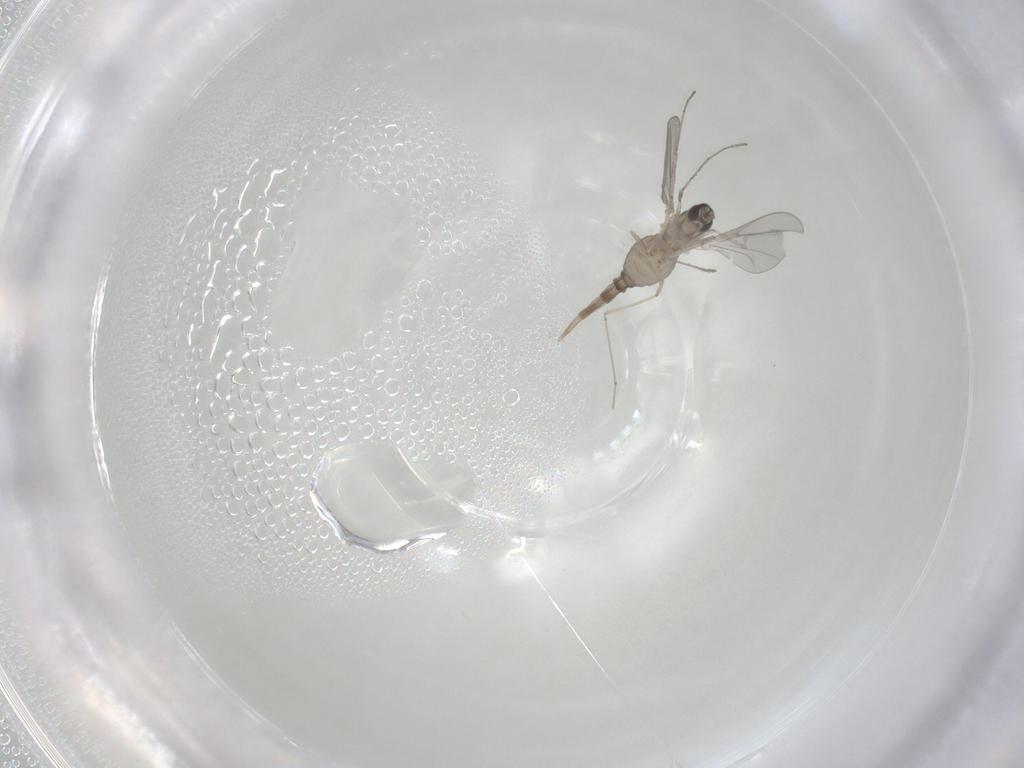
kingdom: Animalia
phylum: Arthropoda
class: Insecta
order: Diptera
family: Cecidomyiidae
